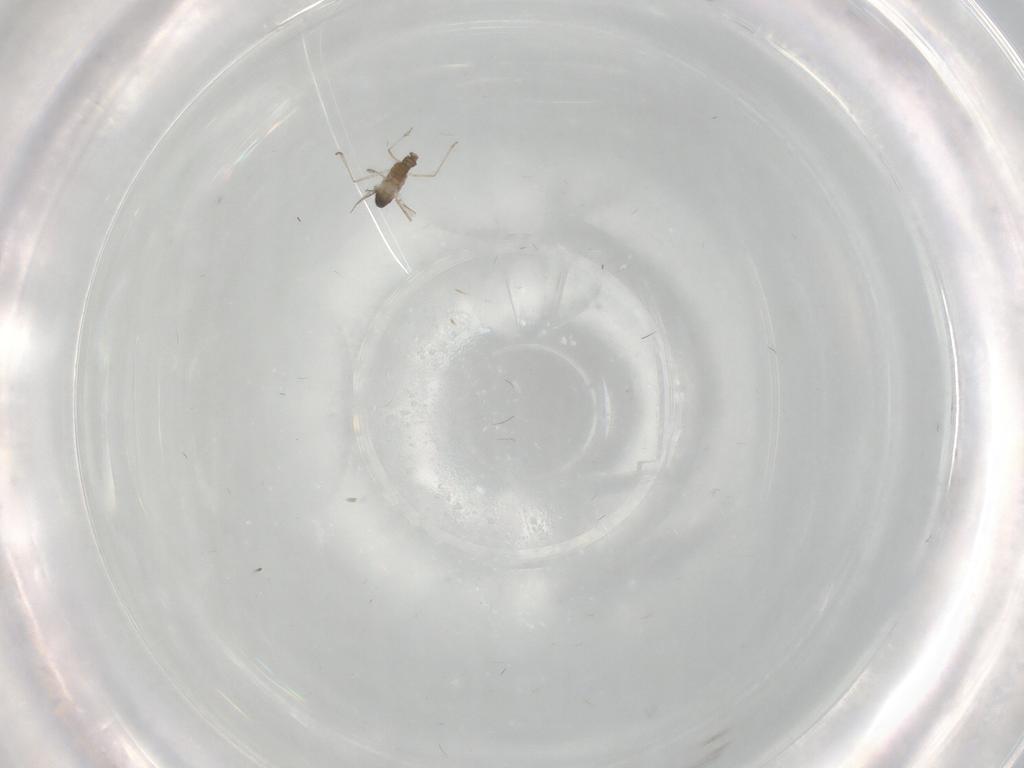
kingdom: Animalia
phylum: Arthropoda
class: Insecta
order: Diptera
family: Cecidomyiidae
